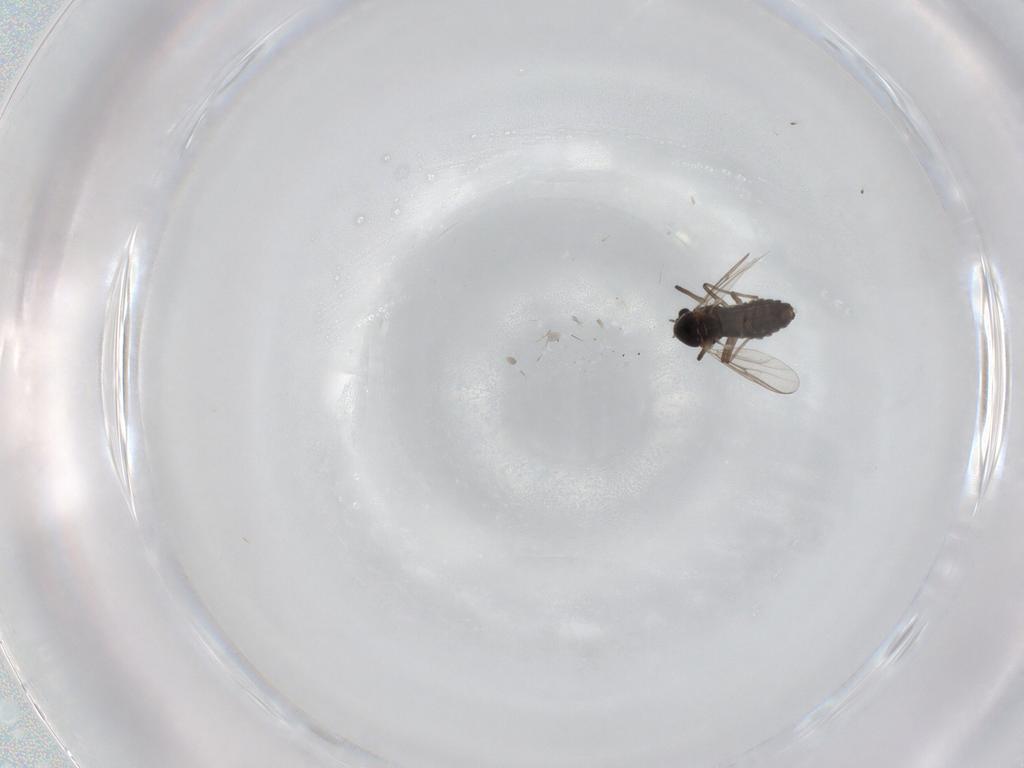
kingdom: Animalia
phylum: Arthropoda
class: Insecta
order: Diptera
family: Chironomidae
